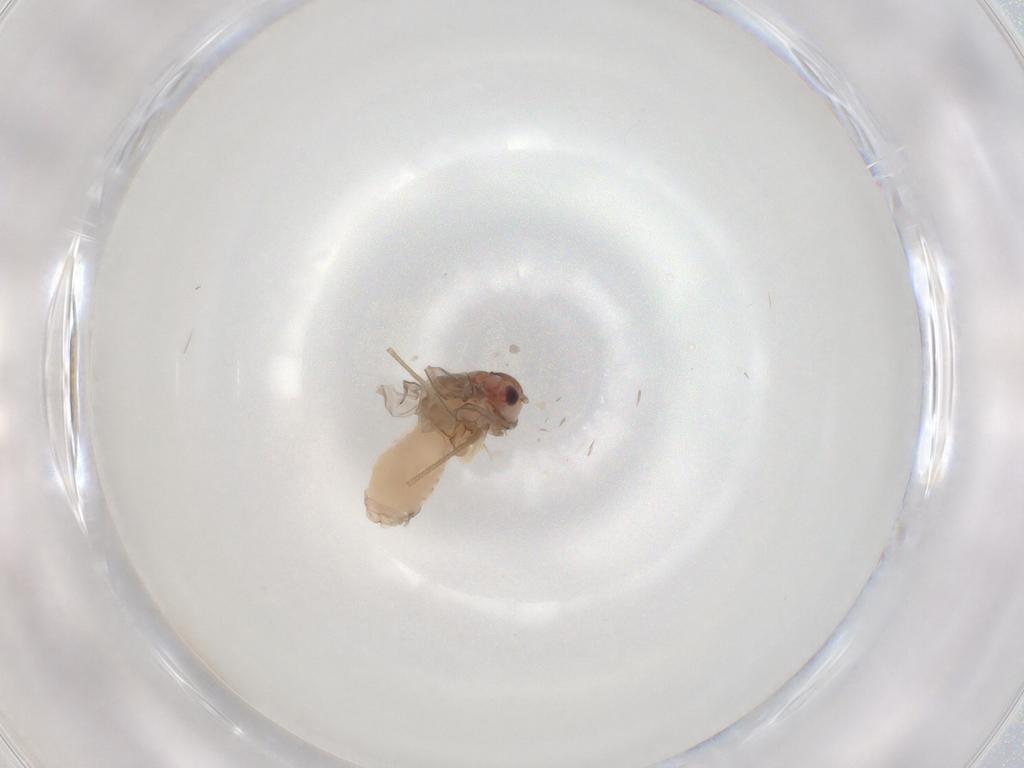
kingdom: Animalia
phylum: Arthropoda
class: Insecta
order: Psocodea
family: Peripsocidae
